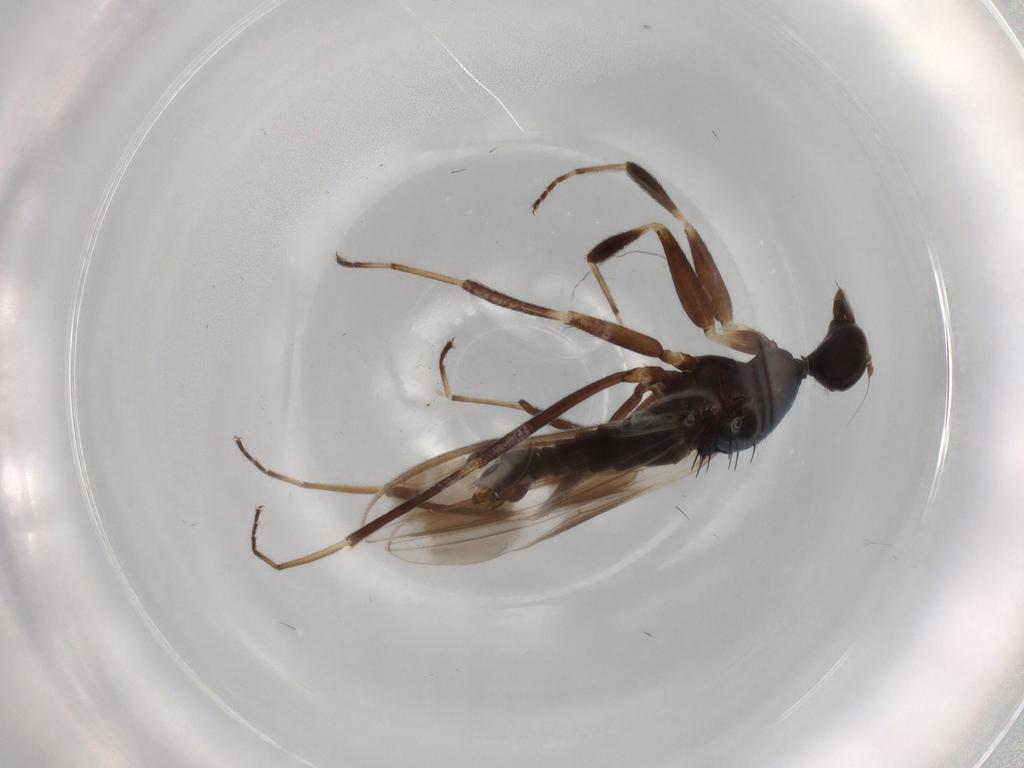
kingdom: Animalia
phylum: Arthropoda
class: Insecta
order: Diptera
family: Hybotidae
